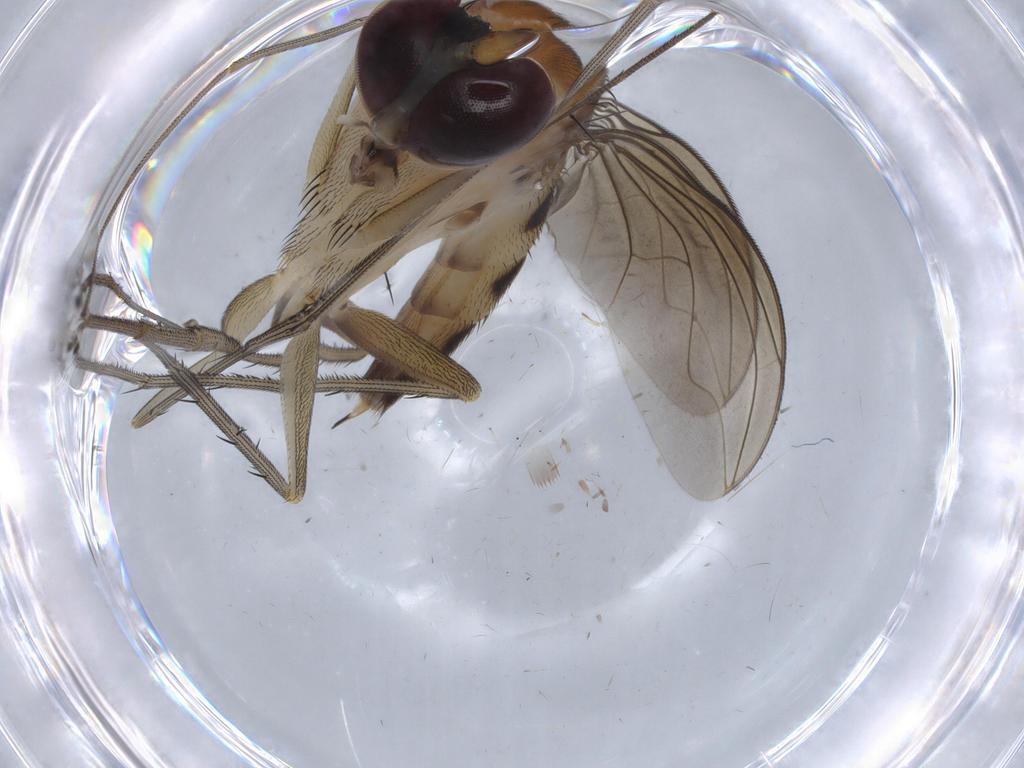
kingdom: Animalia
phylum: Arthropoda
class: Insecta
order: Diptera
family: Dolichopodidae
